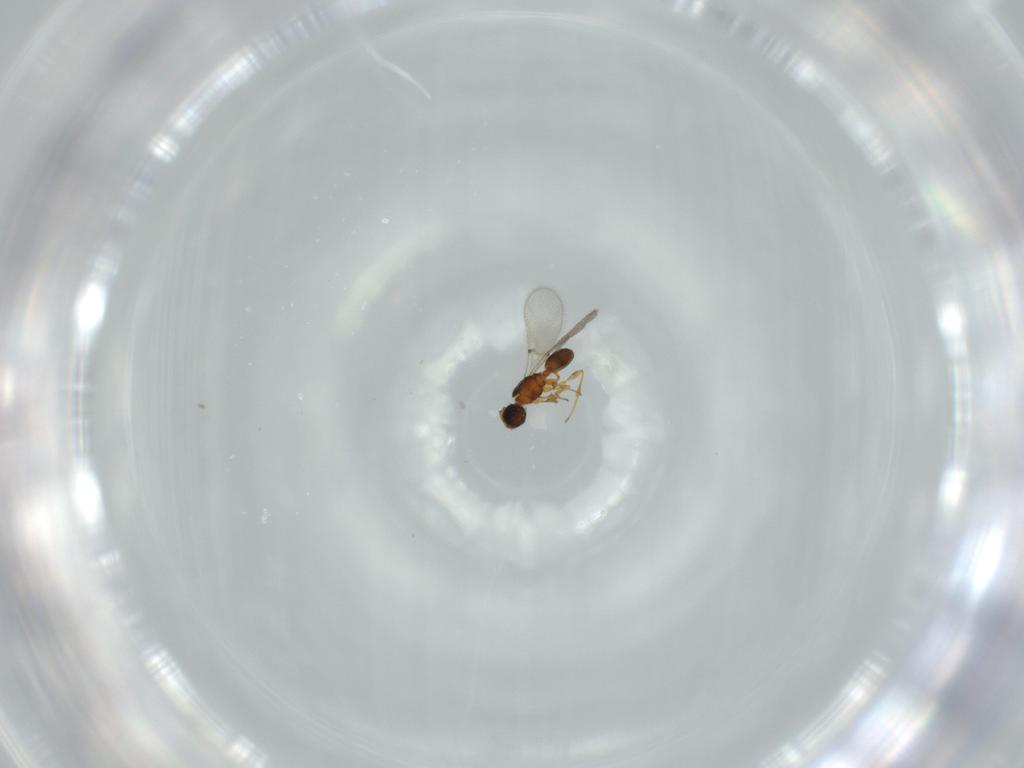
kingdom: Animalia
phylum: Arthropoda
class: Insecta
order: Hymenoptera
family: Diapriidae
